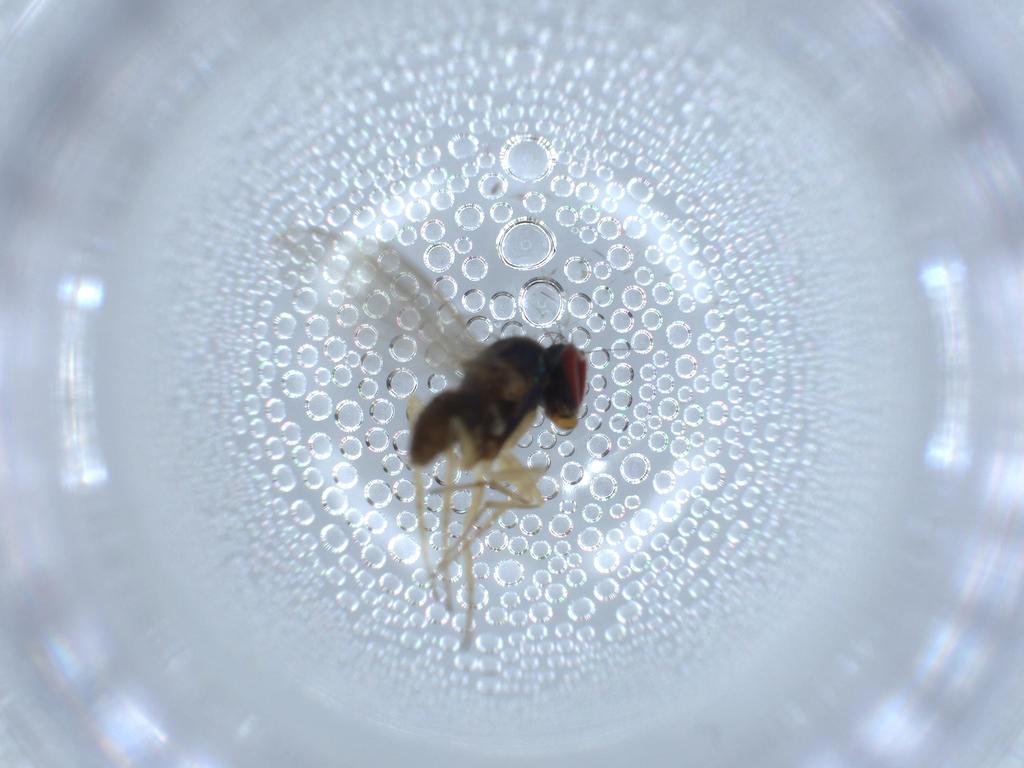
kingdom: Animalia
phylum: Arthropoda
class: Insecta
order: Diptera
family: Dolichopodidae
